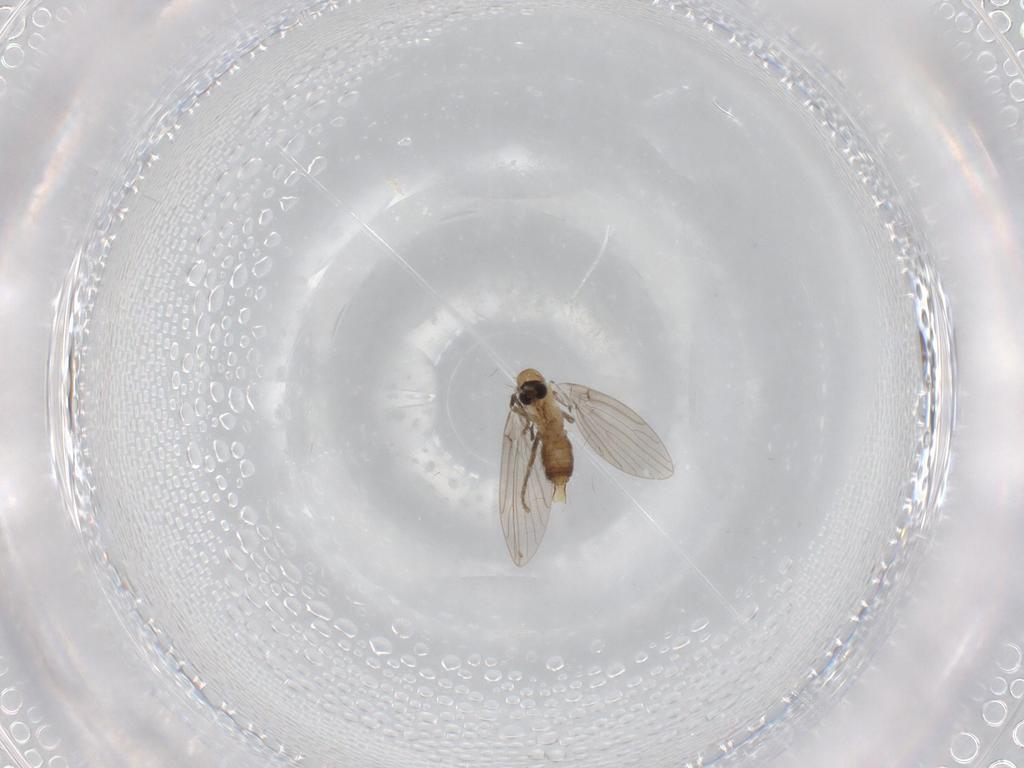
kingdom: Animalia
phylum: Arthropoda
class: Insecta
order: Diptera
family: Psychodidae
